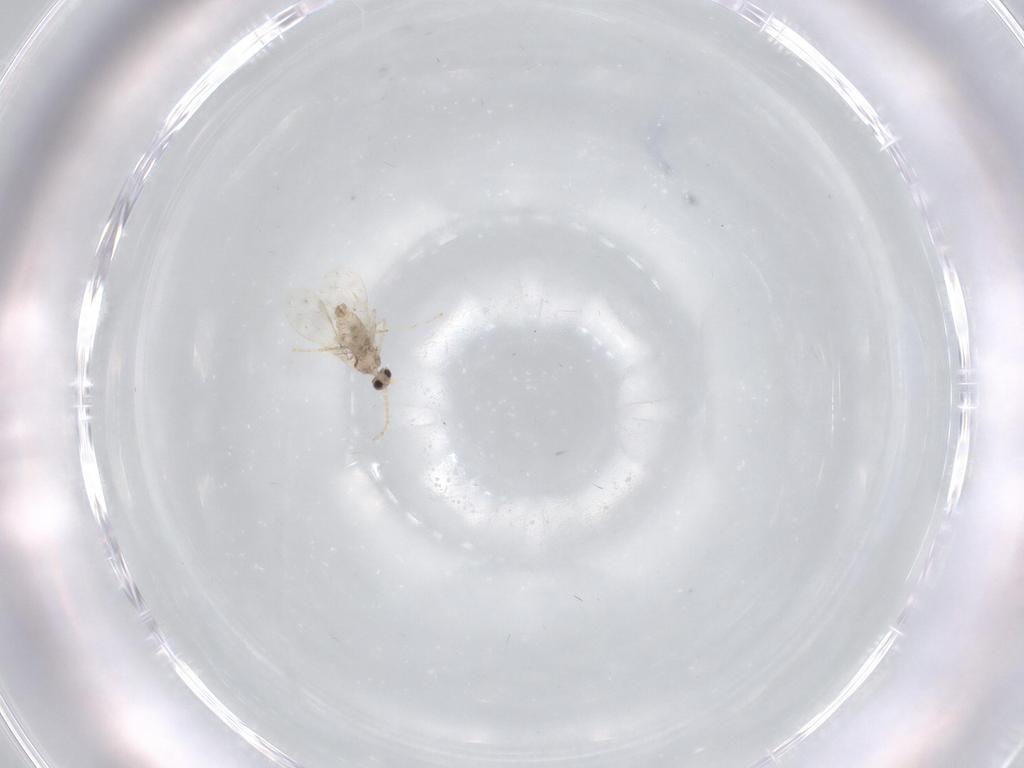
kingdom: Animalia
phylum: Arthropoda
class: Insecta
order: Diptera
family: Cecidomyiidae
